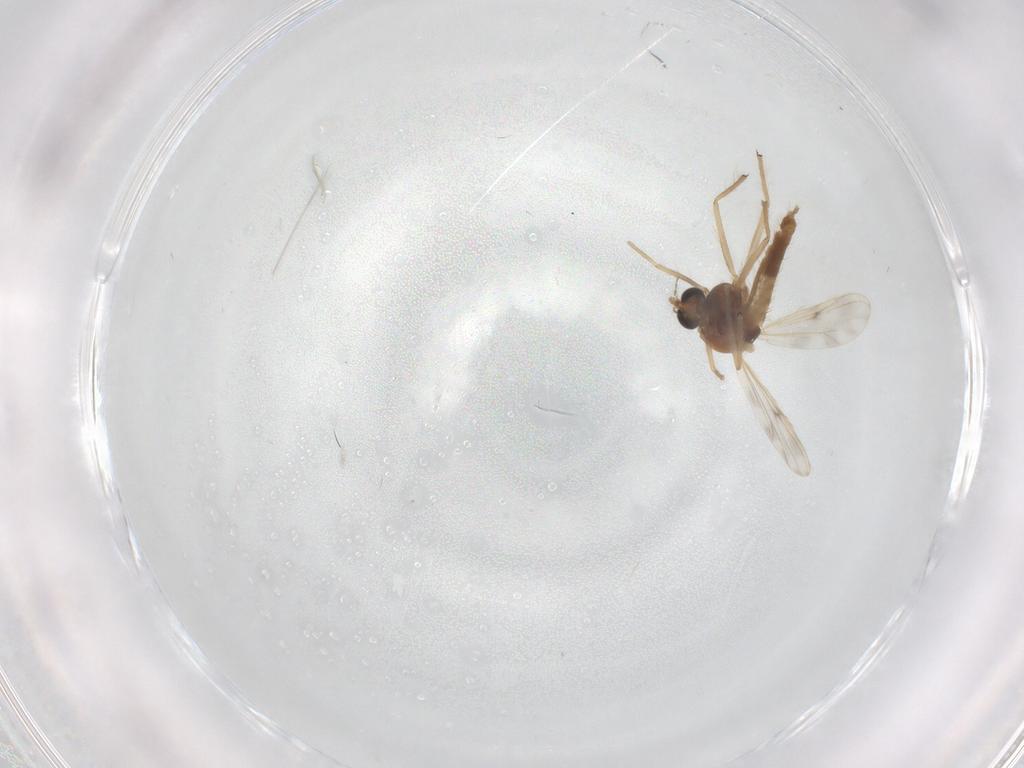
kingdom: Animalia
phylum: Arthropoda
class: Insecta
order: Diptera
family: Chironomidae
